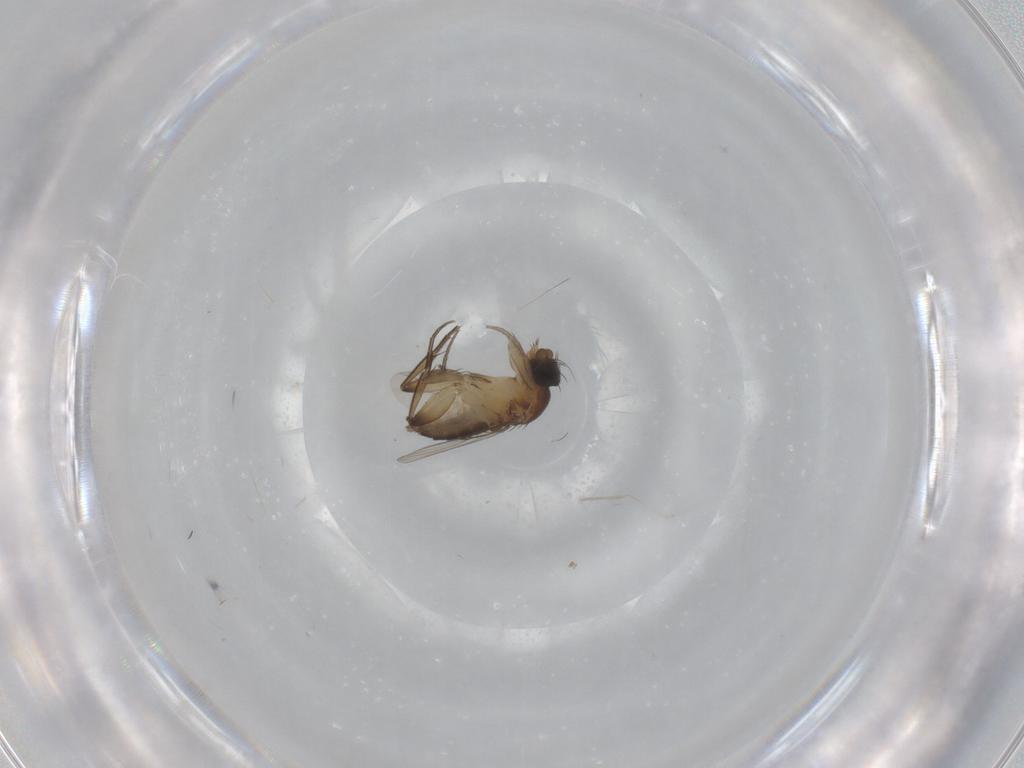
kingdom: Animalia
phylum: Arthropoda
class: Insecta
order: Diptera
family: Phoridae
